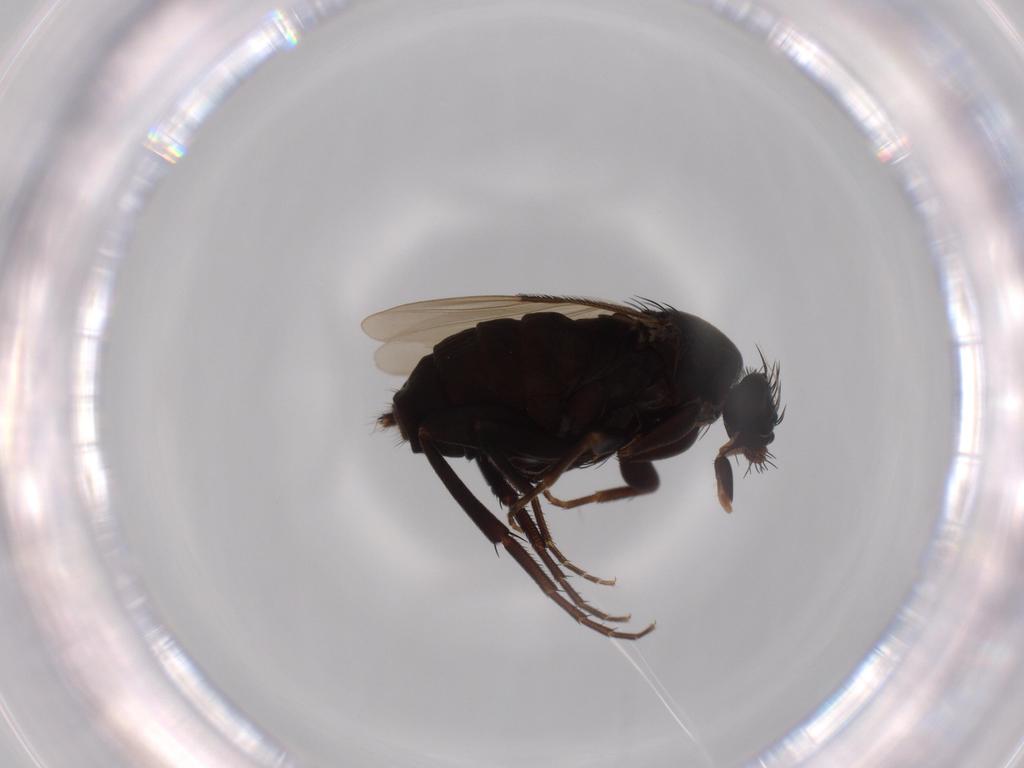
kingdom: Animalia
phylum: Arthropoda
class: Insecta
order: Diptera
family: Phoridae
